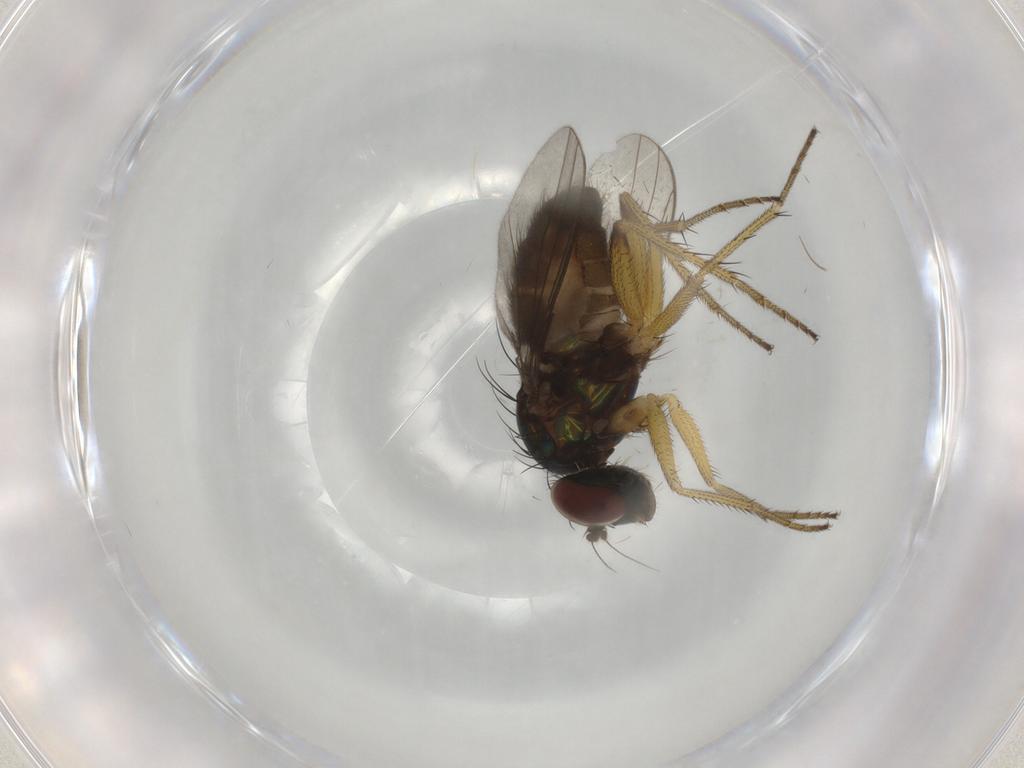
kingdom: Animalia
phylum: Arthropoda
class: Insecta
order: Diptera
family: Dolichopodidae
